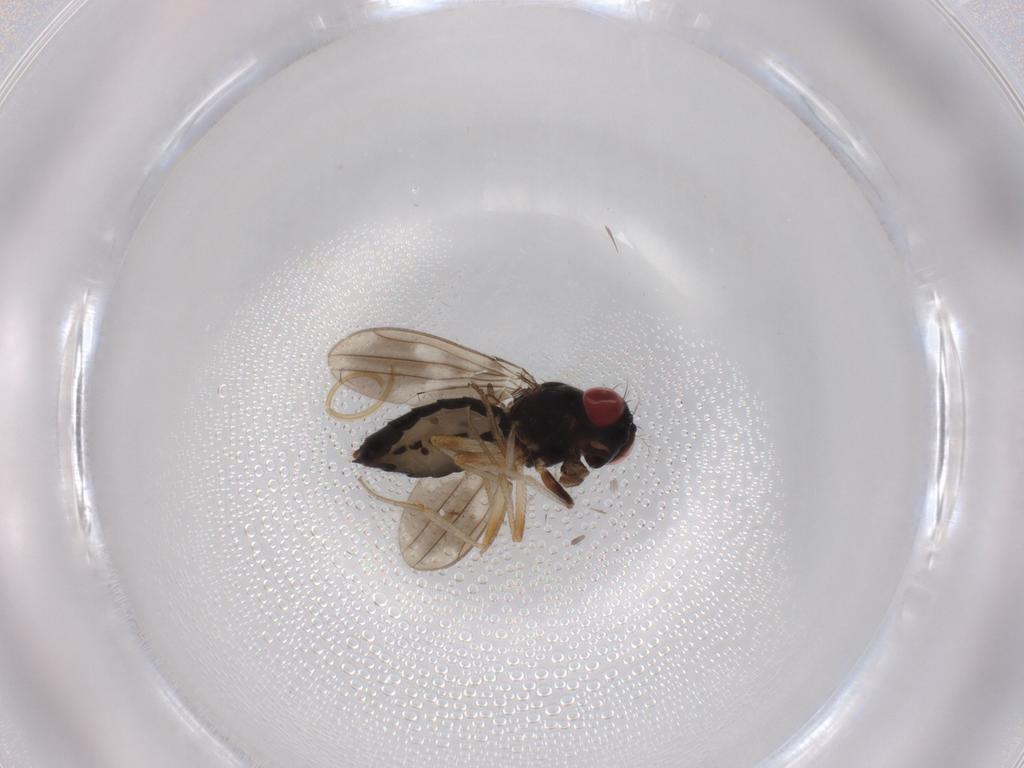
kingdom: Animalia
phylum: Arthropoda
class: Insecta
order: Diptera
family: Drosophilidae
